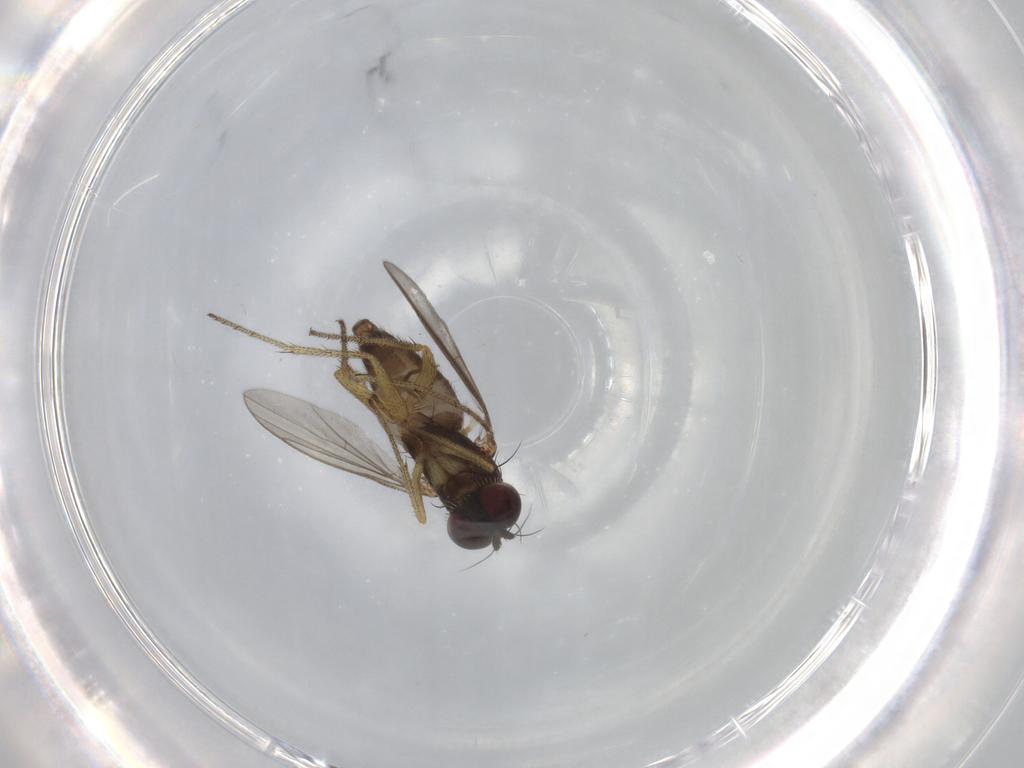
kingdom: Animalia
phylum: Arthropoda
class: Insecta
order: Diptera
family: Dolichopodidae
